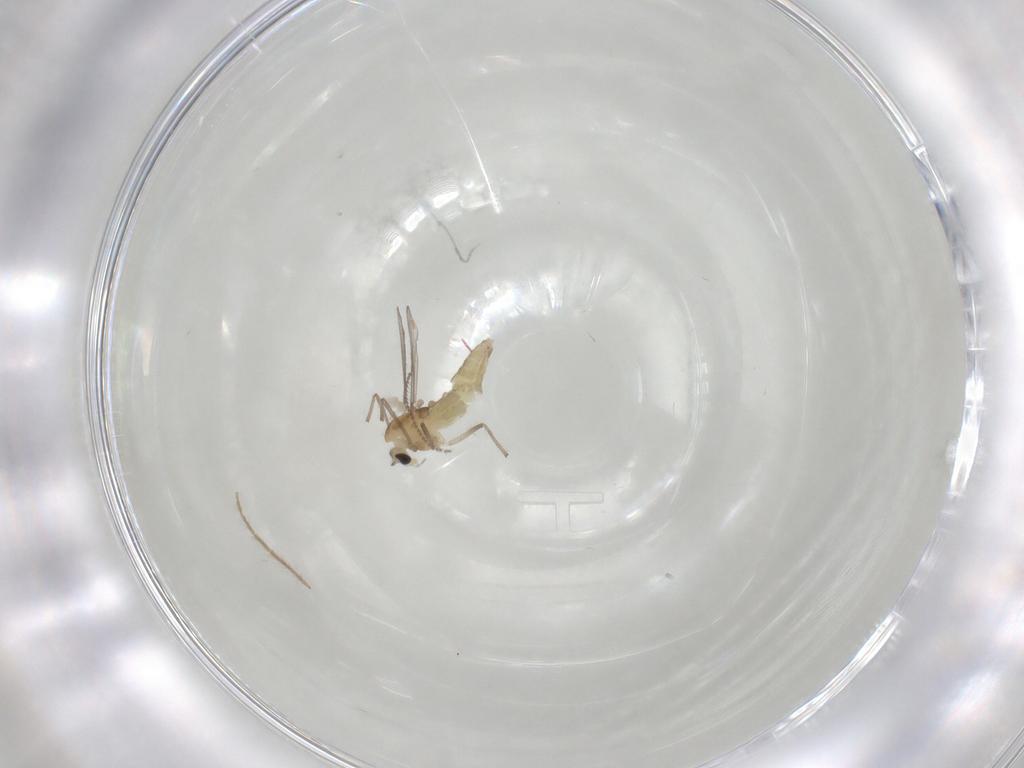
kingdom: Animalia
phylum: Arthropoda
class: Insecta
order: Diptera
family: Chironomidae
